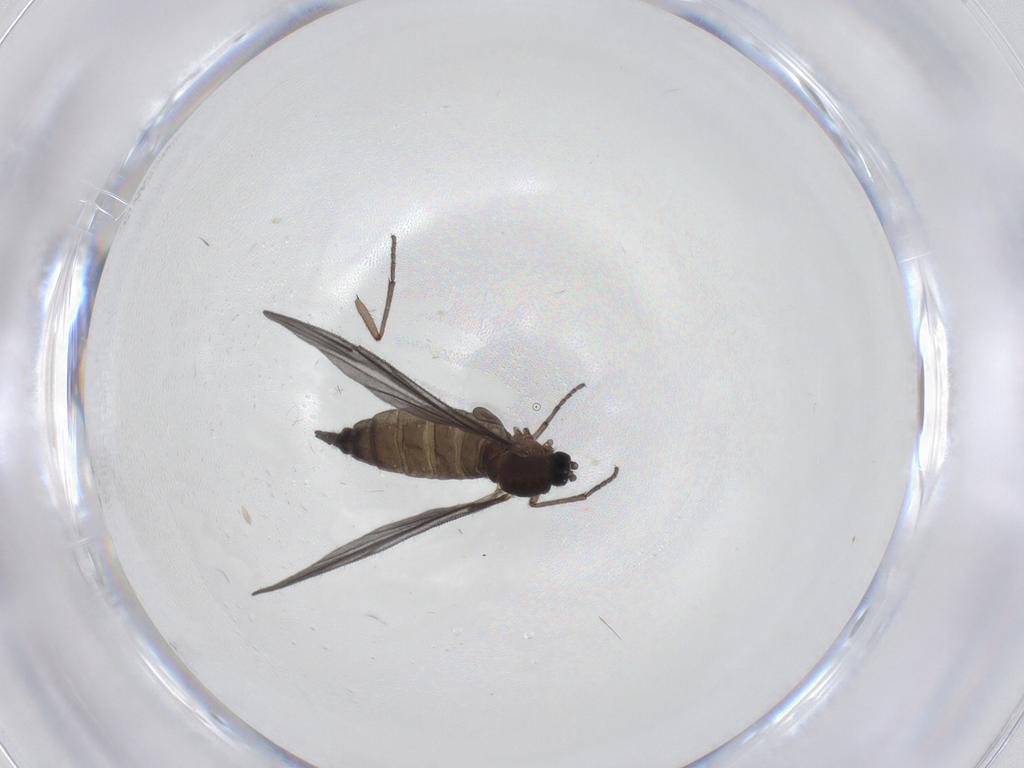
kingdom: Animalia
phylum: Arthropoda
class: Insecta
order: Diptera
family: Sciaridae
